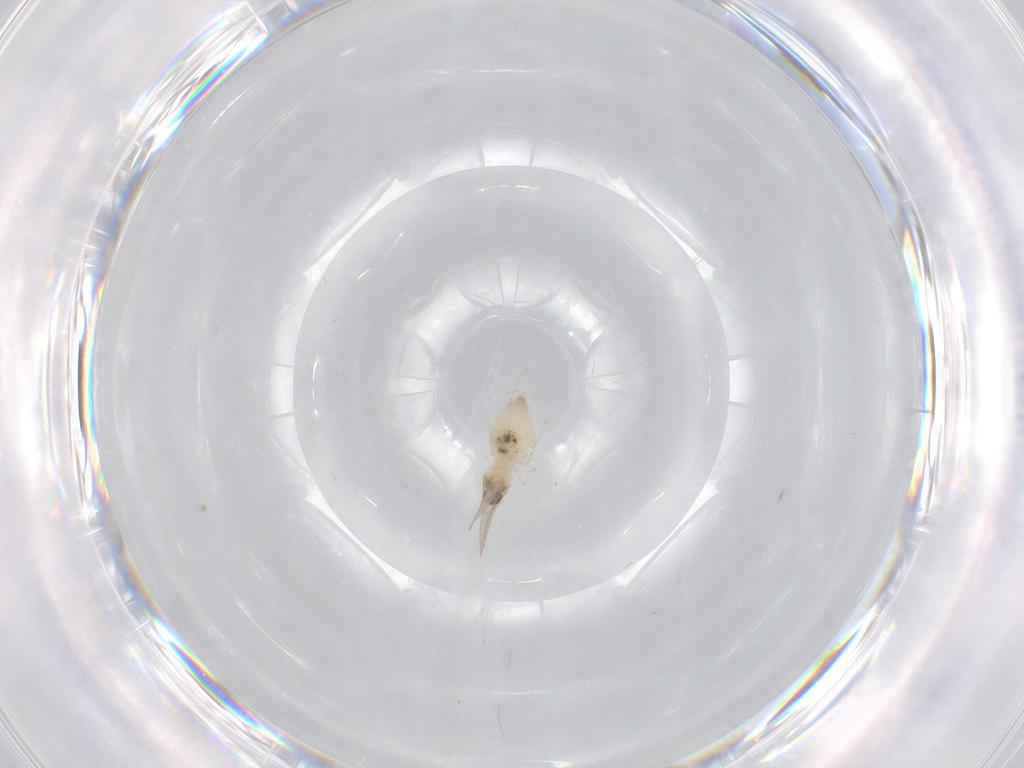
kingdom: Animalia
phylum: Arthropoda
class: Insecta
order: Diptera
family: Cecidomyiidae
